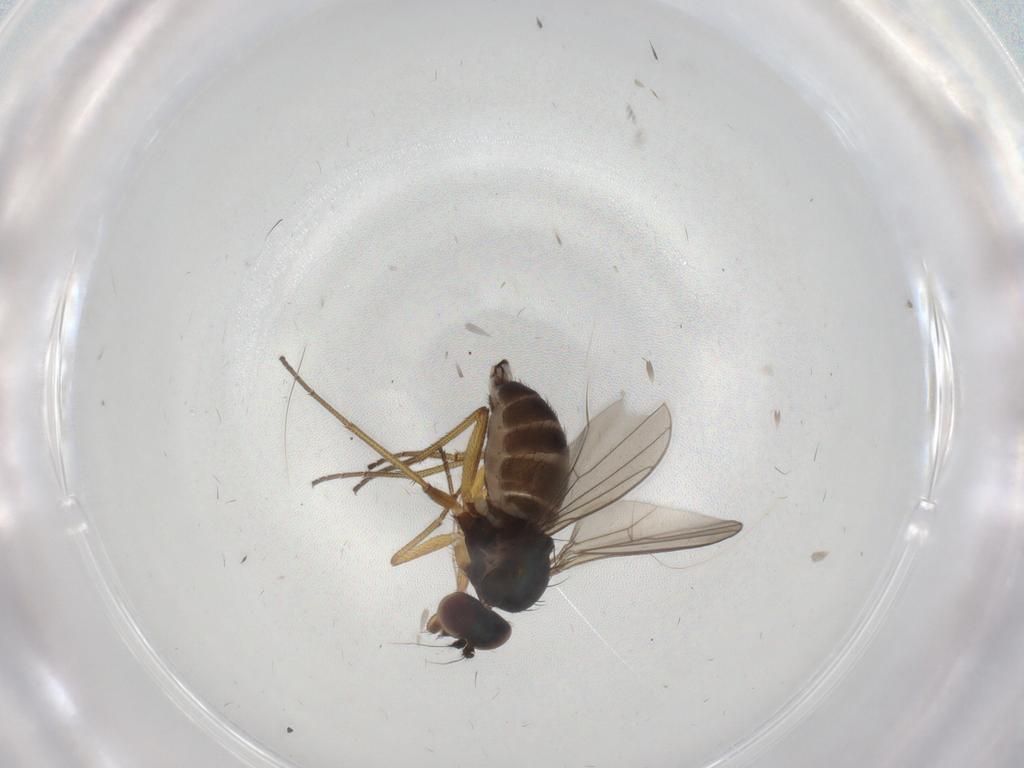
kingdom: Animalia
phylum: Arthropoda
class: Insecta
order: Diptera
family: Dolichopodidae
